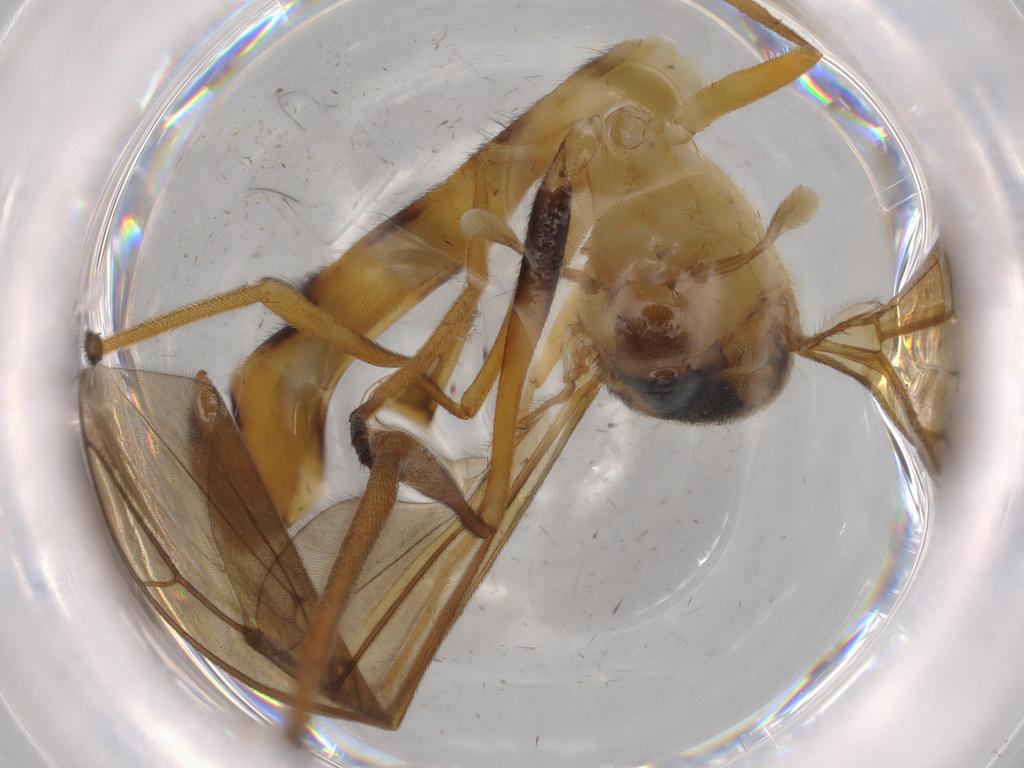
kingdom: Animalia
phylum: Arthropoda
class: Insecta
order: Diptera
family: Stratiomyidae
